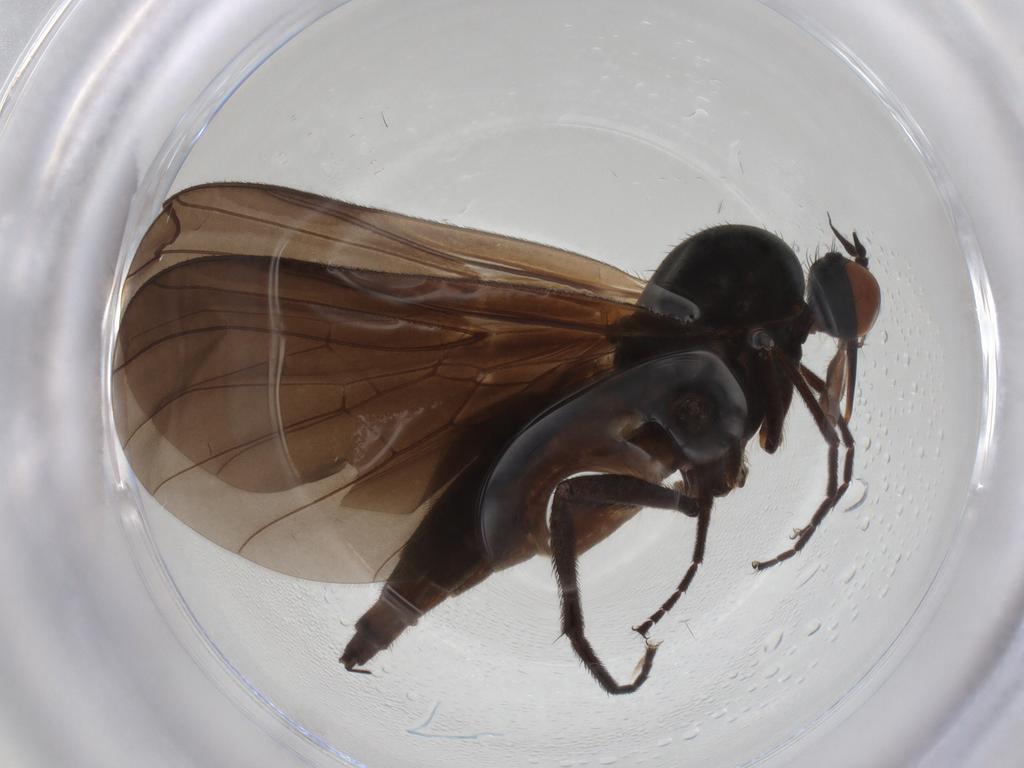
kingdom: Animalia
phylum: Arthropoda
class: Insecta
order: Diptera
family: Empididae
